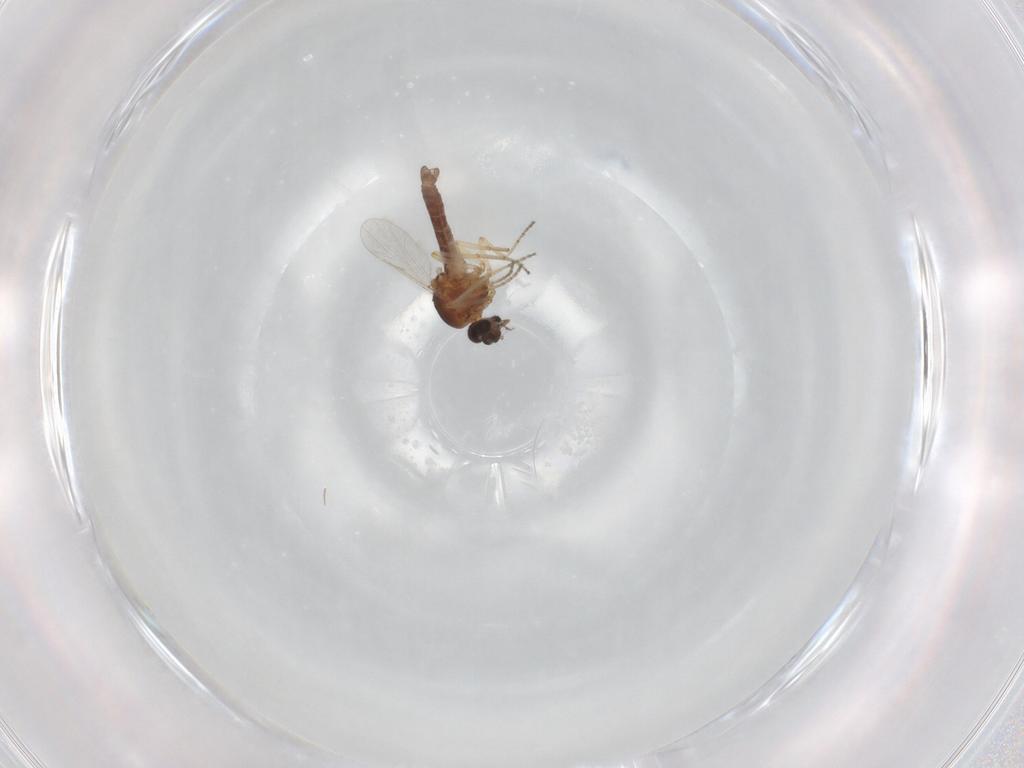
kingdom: Animalia
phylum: Arthropoda
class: Insecta
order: Diptera
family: Ceratopogonidae
